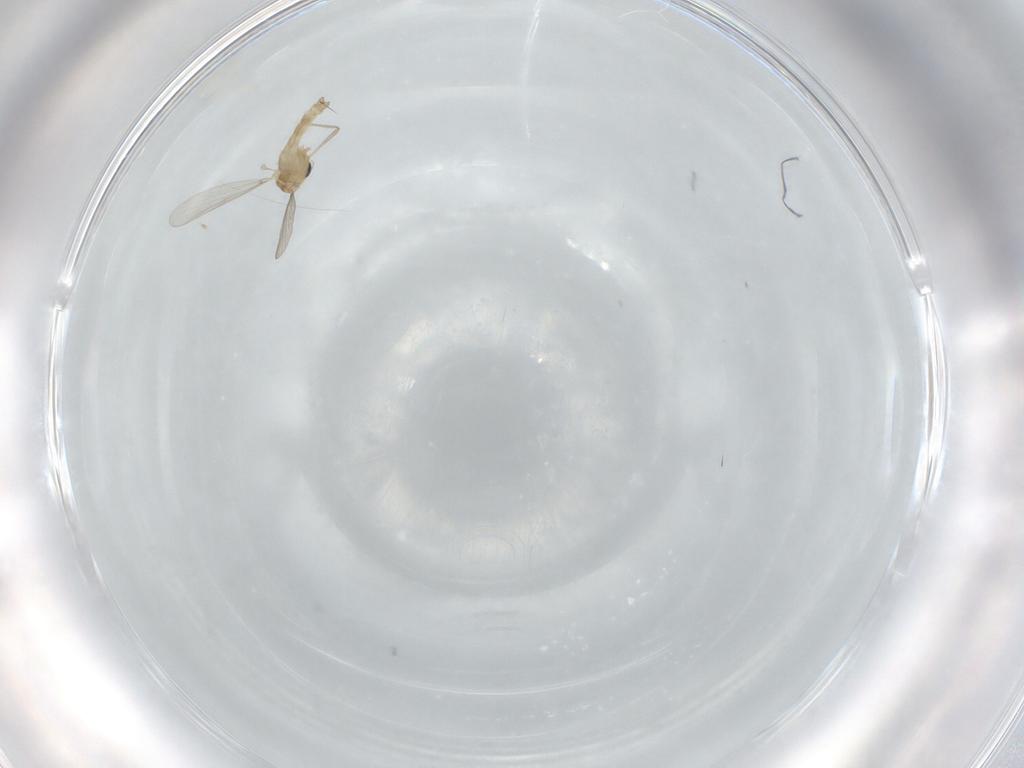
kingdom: Animalia
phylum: Arthropoda
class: Insecta
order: Diptera
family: Chironomidae
